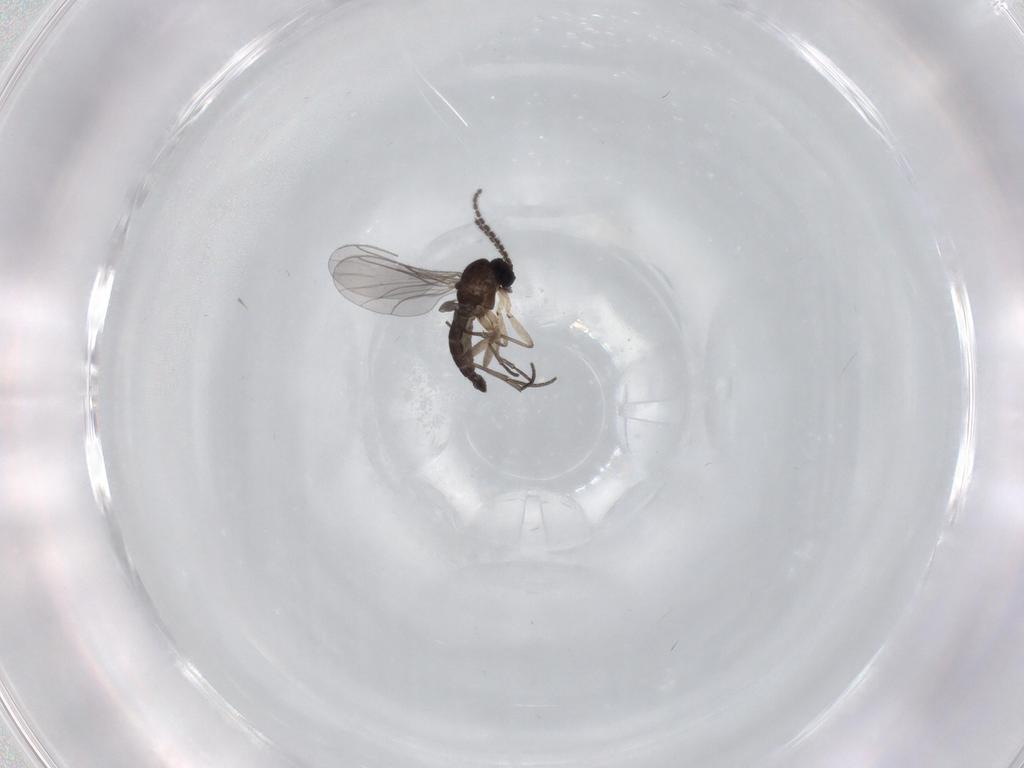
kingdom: Animalia
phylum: Arthropoda
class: Insecta
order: Diptera
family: Sciaridae
